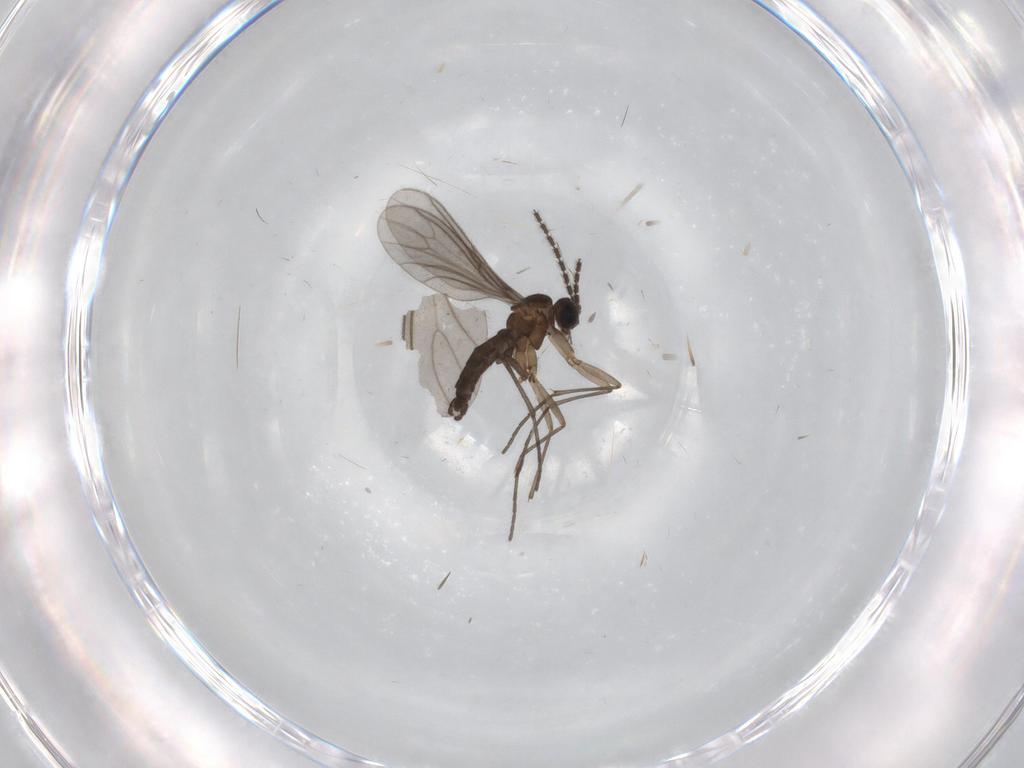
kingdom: Animalia
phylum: Arthropoda
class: Insecta
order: Diptera
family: Sciaridae
